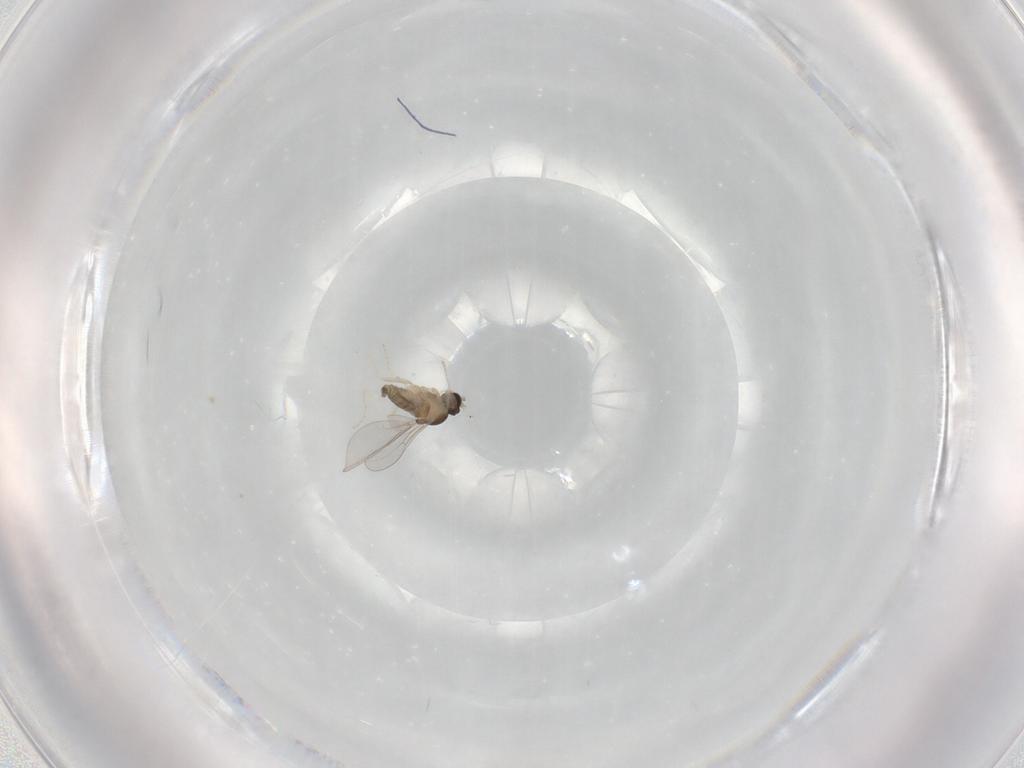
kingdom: Animalia
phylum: Arthropoda
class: Insecta
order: Diptera
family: Cecidomyiidae
